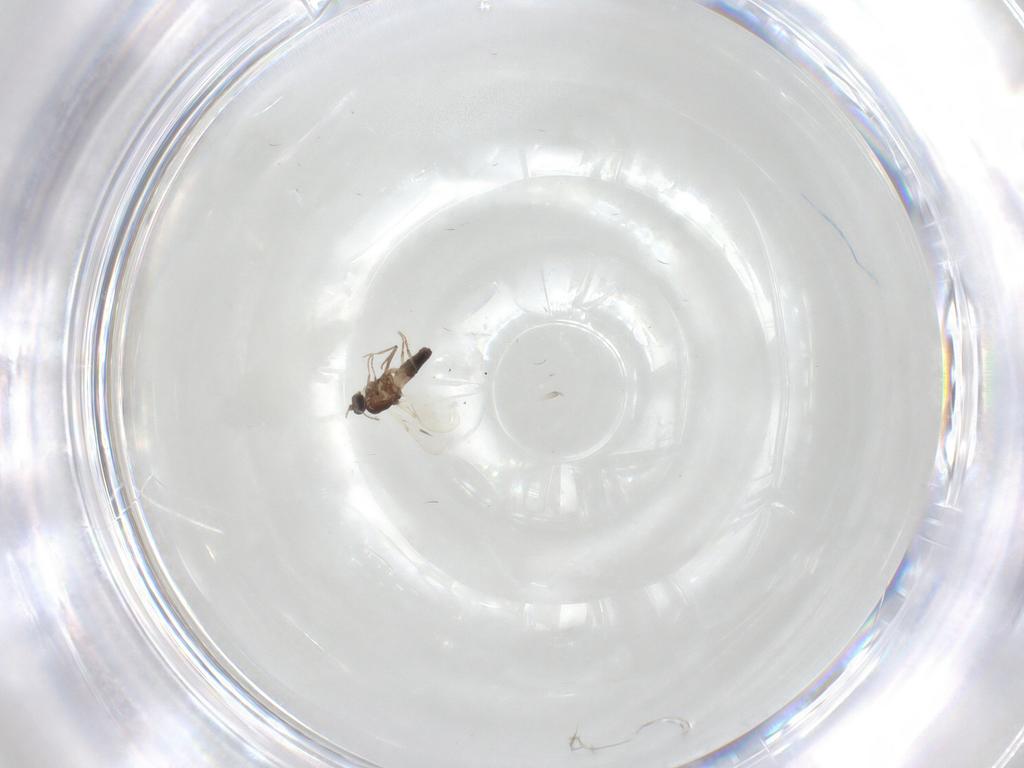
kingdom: Animalia
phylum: Arthropoda
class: Insecta
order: Diptera
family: Ceratopogonidae
